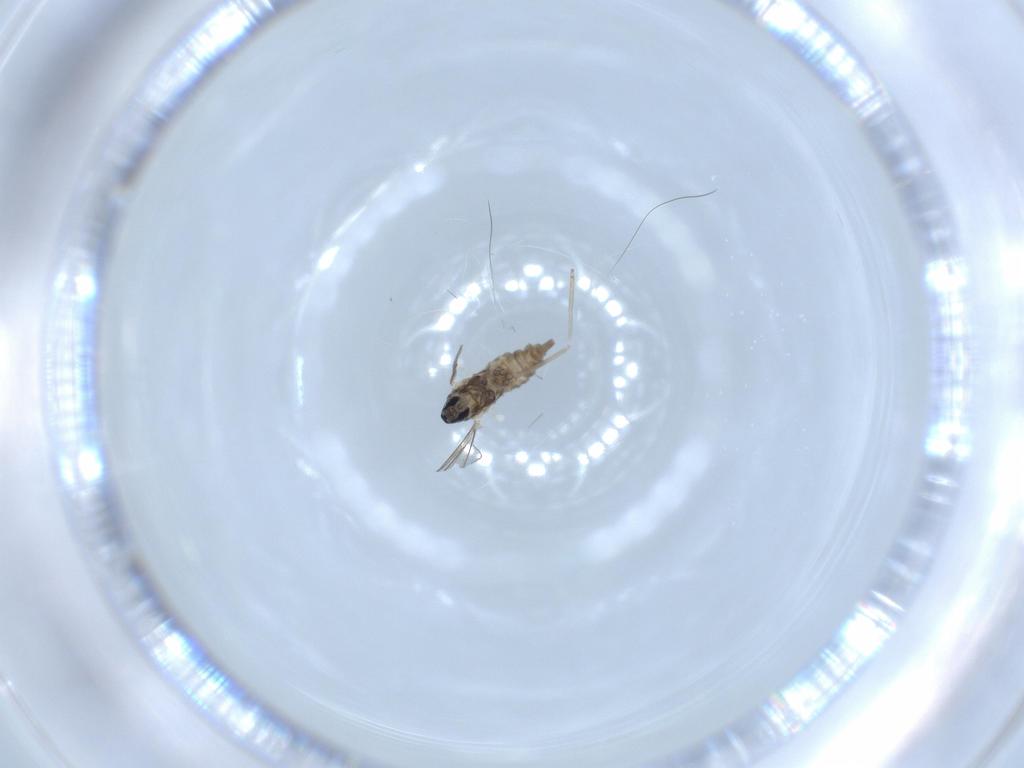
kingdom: Animalia
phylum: Arthropoda
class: Insecta
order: Diptera
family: Cecidomyiidae
